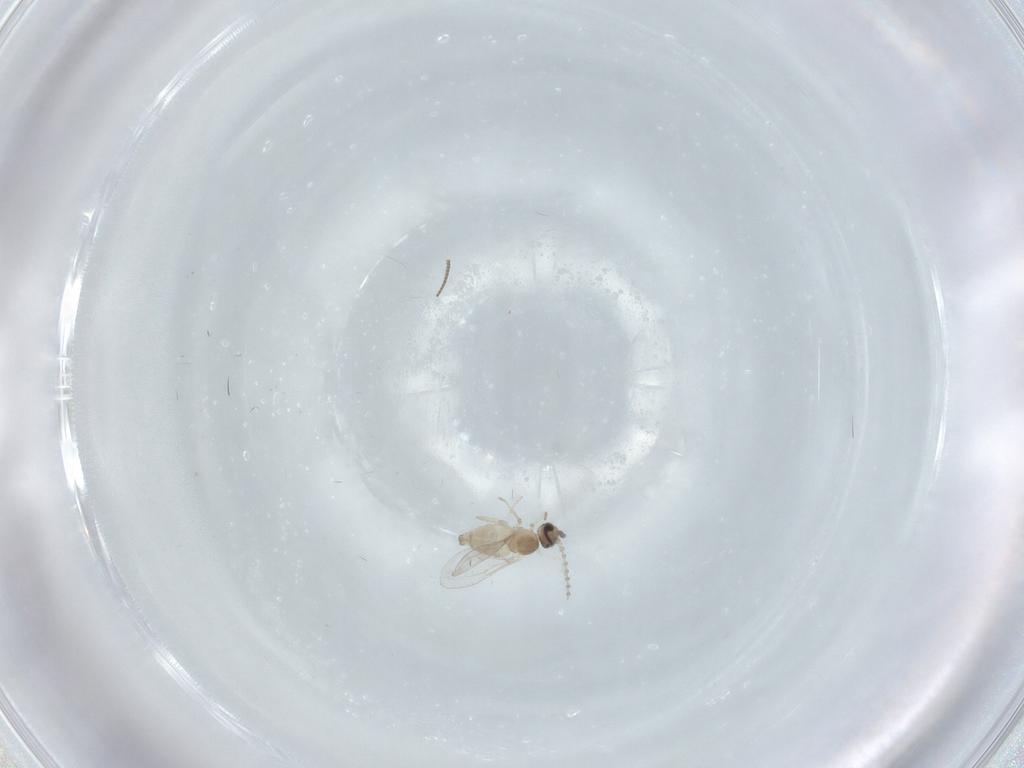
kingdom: Animalia
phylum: Arthropoda
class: Insecta
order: Diptera
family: Cecidomyiidae
